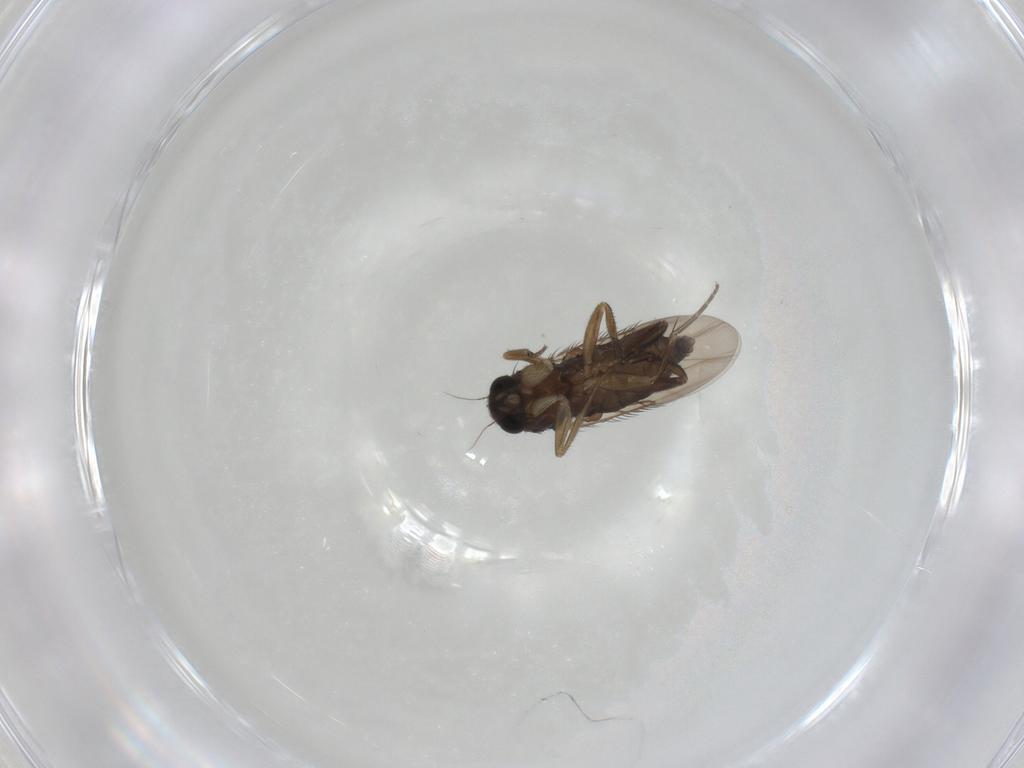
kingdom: Animalia
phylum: Arthropoda
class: Insecta
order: Diptera
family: Phoridae
